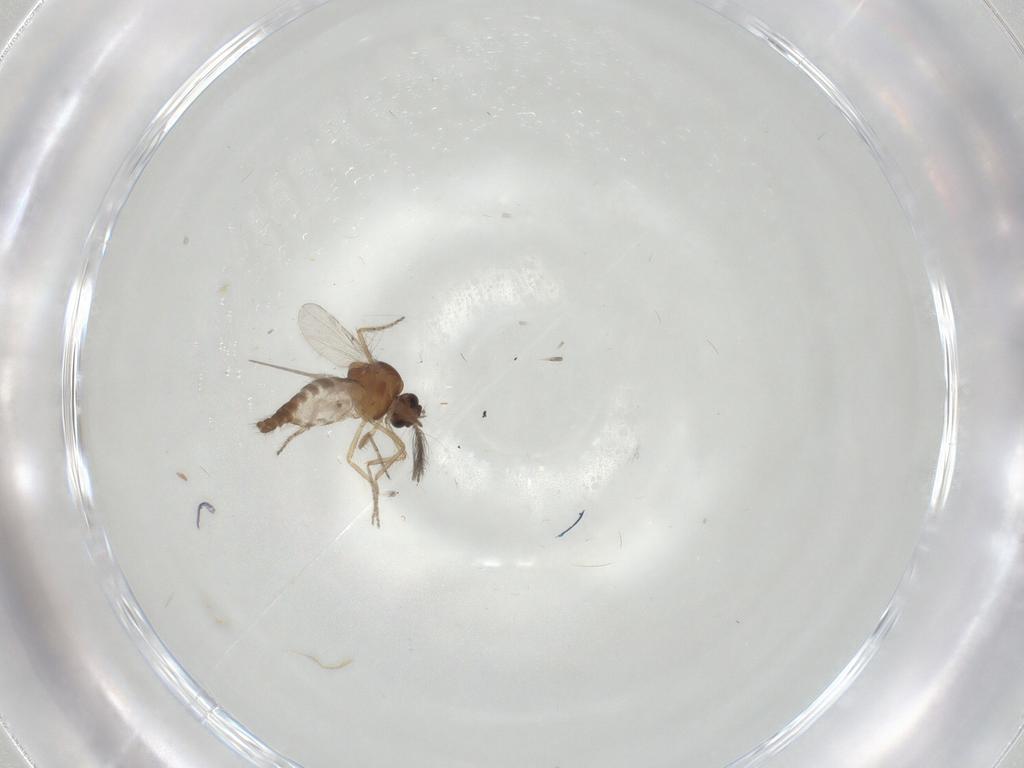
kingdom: Animalia
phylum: Arthropoda
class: Insecta
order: Diptera
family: Ceratopogonidae
